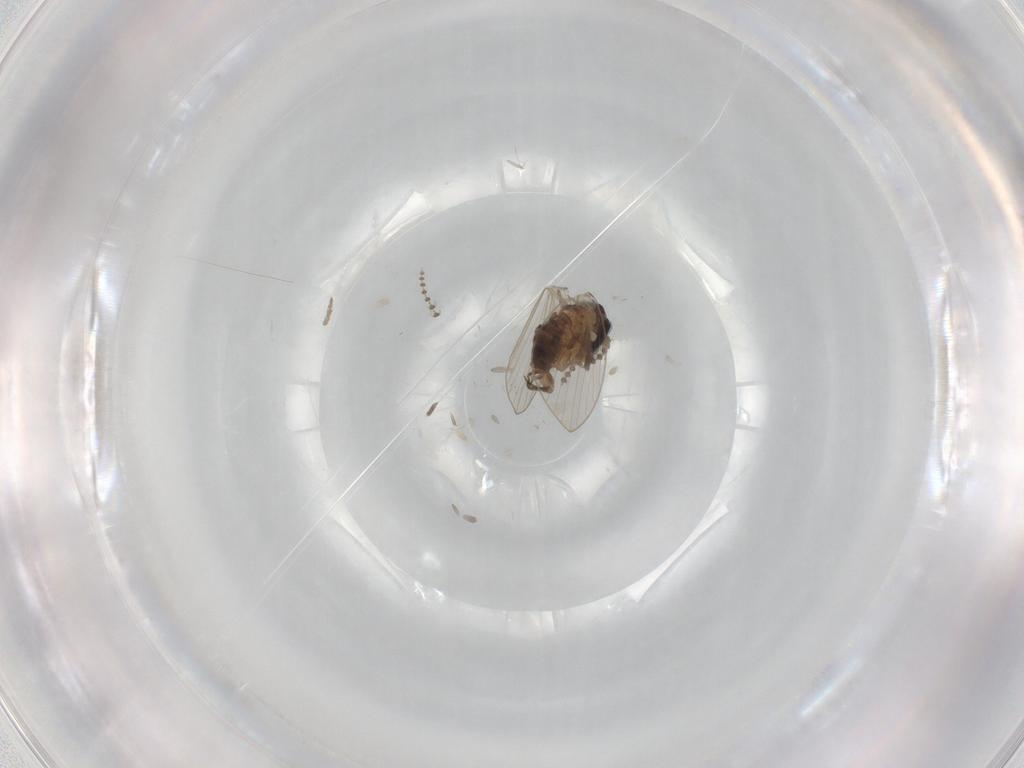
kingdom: Animalia
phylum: Arthropoda
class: Insecta
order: Diptera
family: Psychodidae
